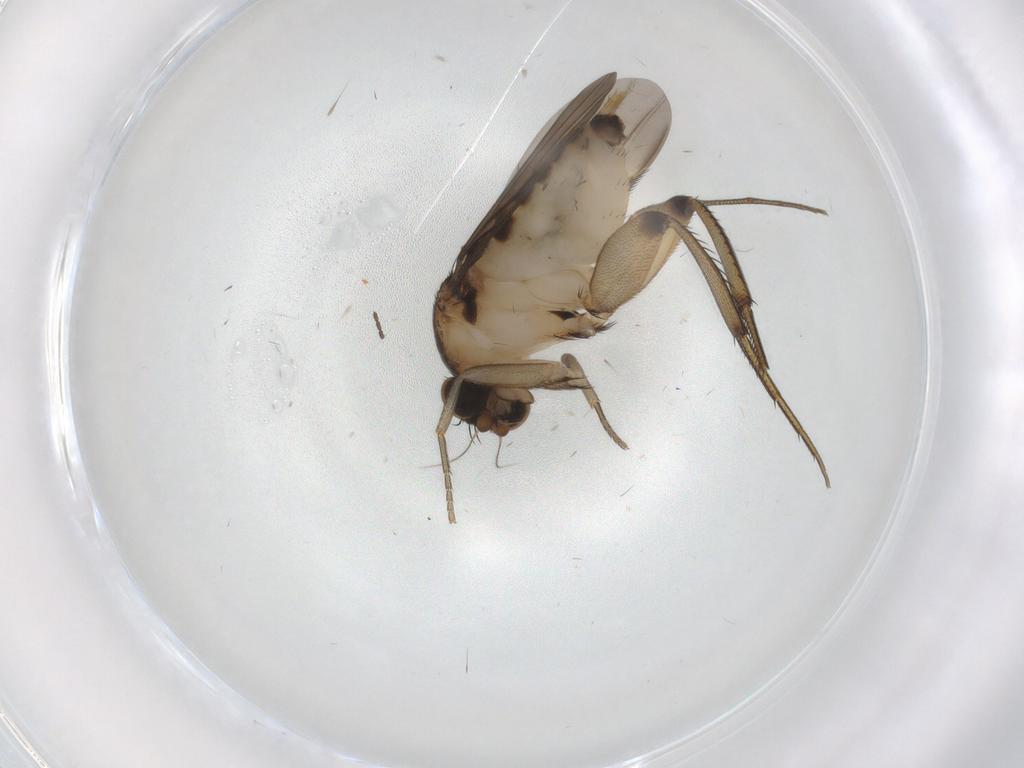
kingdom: Animalia
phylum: Arthropoda
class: Insecta
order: Diptera
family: Phoridae
